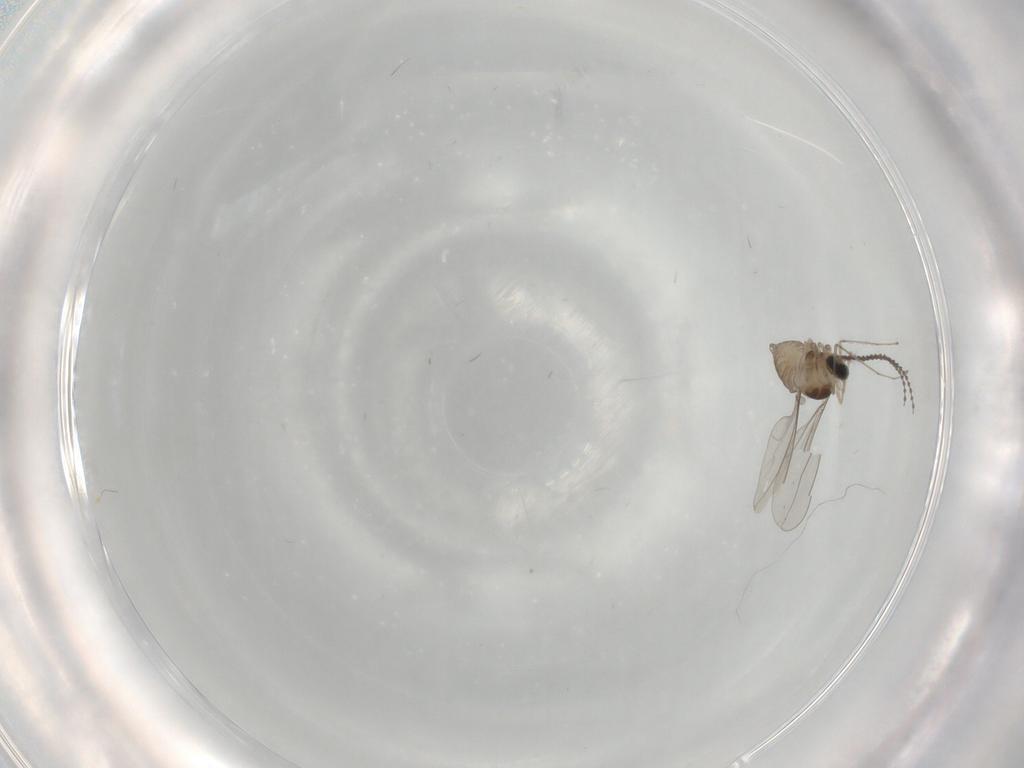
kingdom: Animalia
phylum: Arthropoda
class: Insecta
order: Diptera
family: Cecidomyiidae
